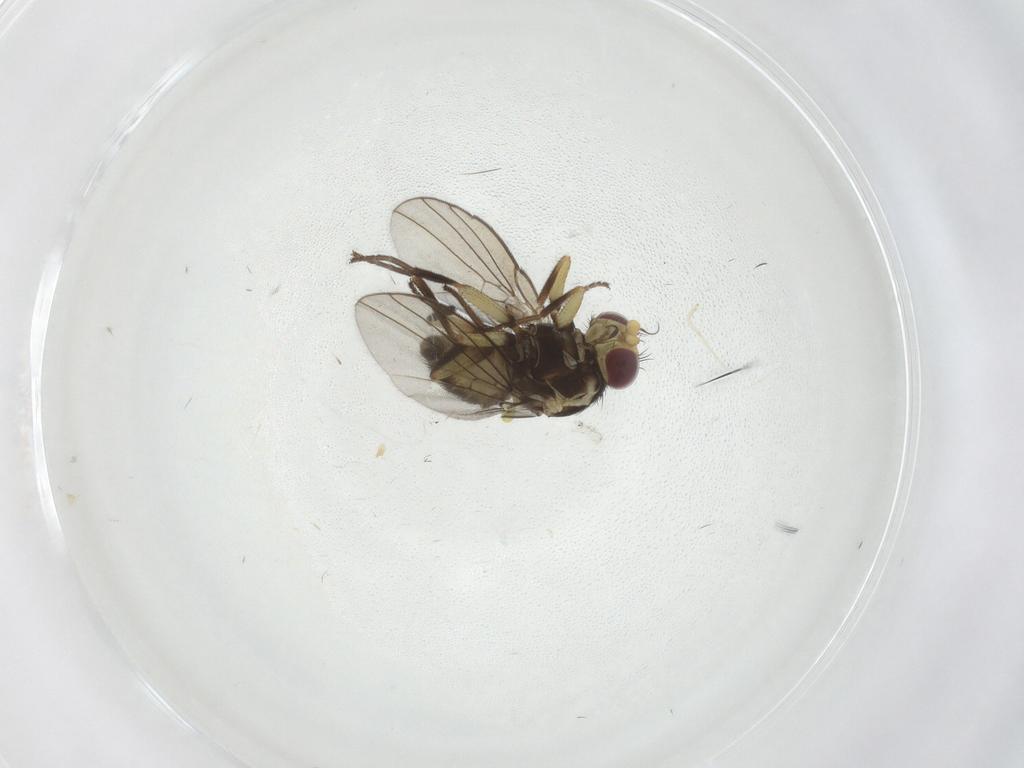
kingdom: Animalia
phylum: Arthropoda
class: Insecta
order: Diptera
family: Agromyzidae
